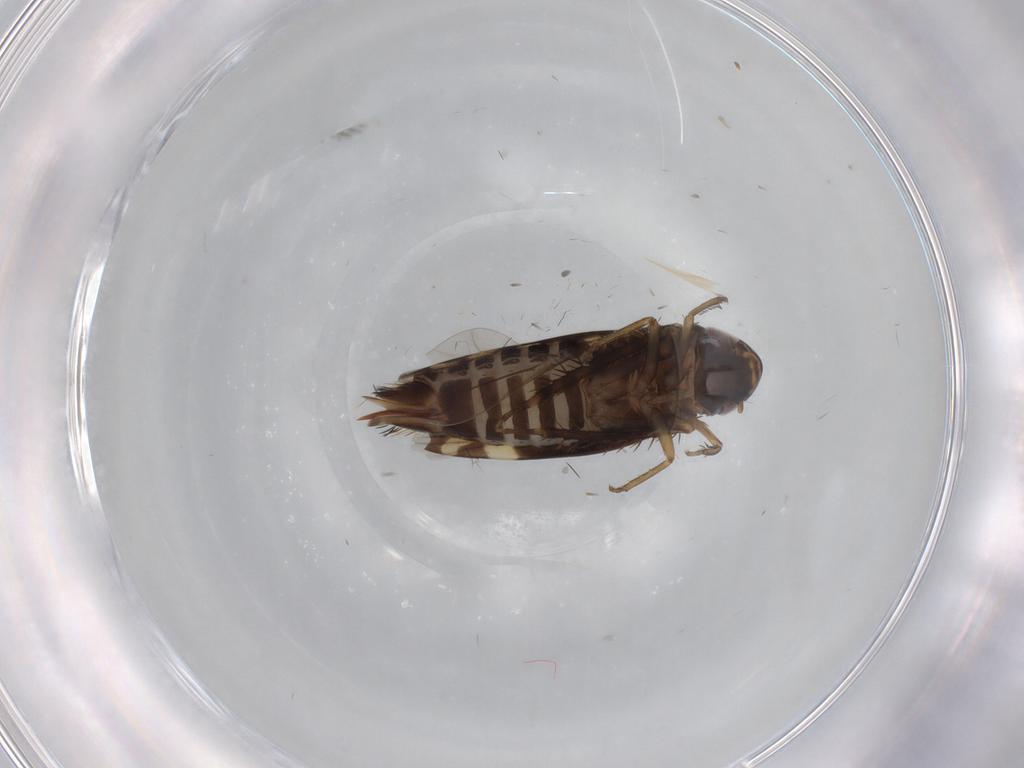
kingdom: Animalia
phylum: Arthropoda
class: Insecta
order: Hemiptera
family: Cicadellidae
